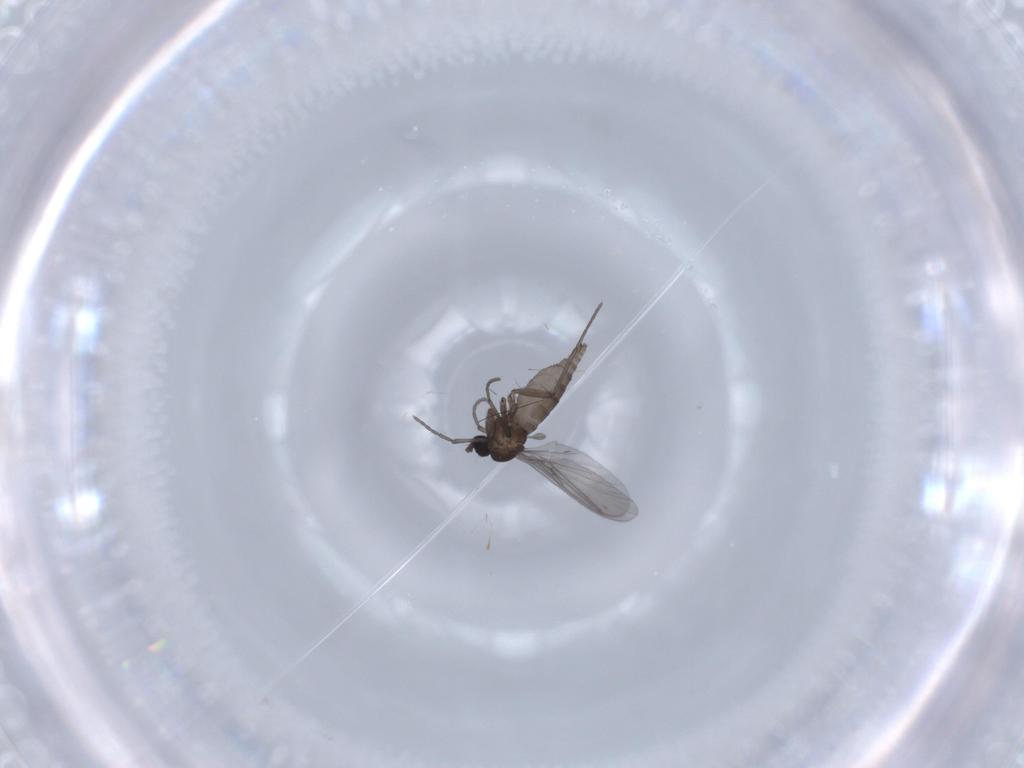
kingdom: Animalia
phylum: Arthropoda
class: Insecta
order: Diptera
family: Sciaridae
